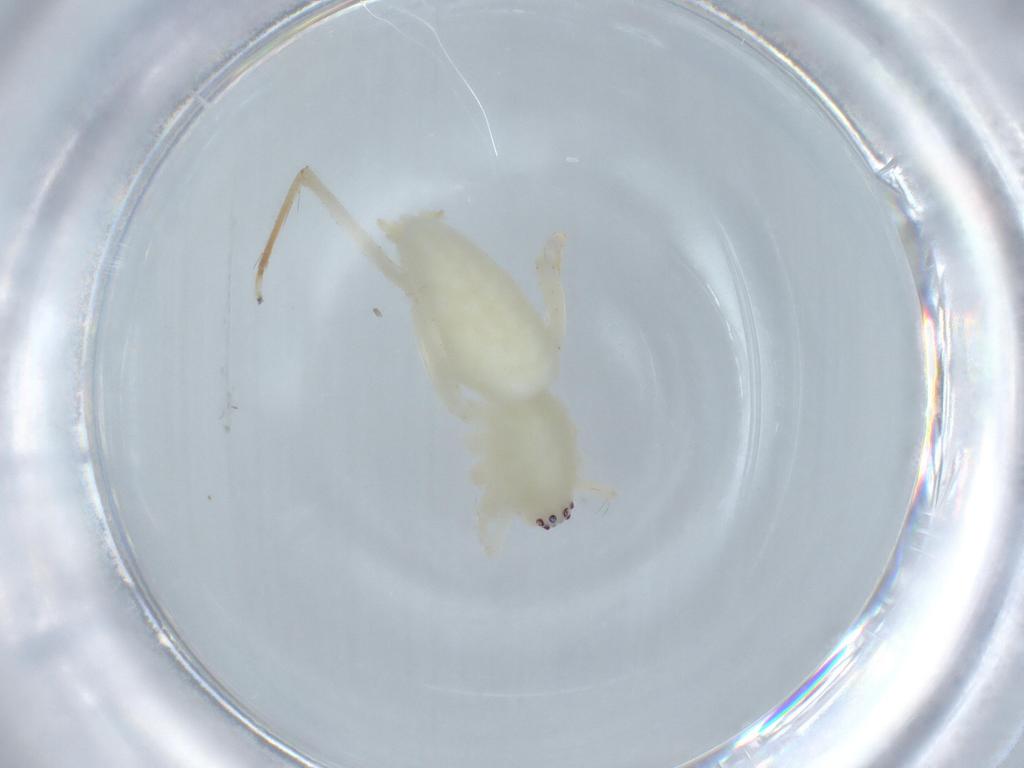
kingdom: Animalia
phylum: Arthropoda
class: Arachnida
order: Araneae
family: Anyphaenidae
